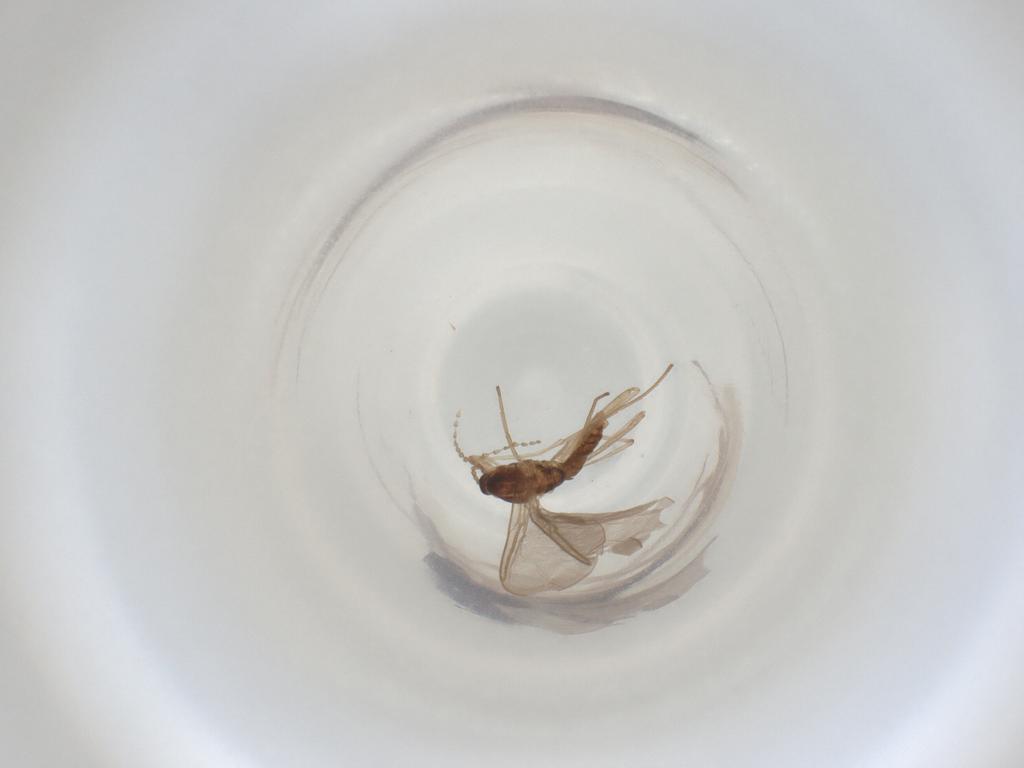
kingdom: Animalia
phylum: Arthropoda
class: Insecta
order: Diptera
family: Cecidomyiidae
